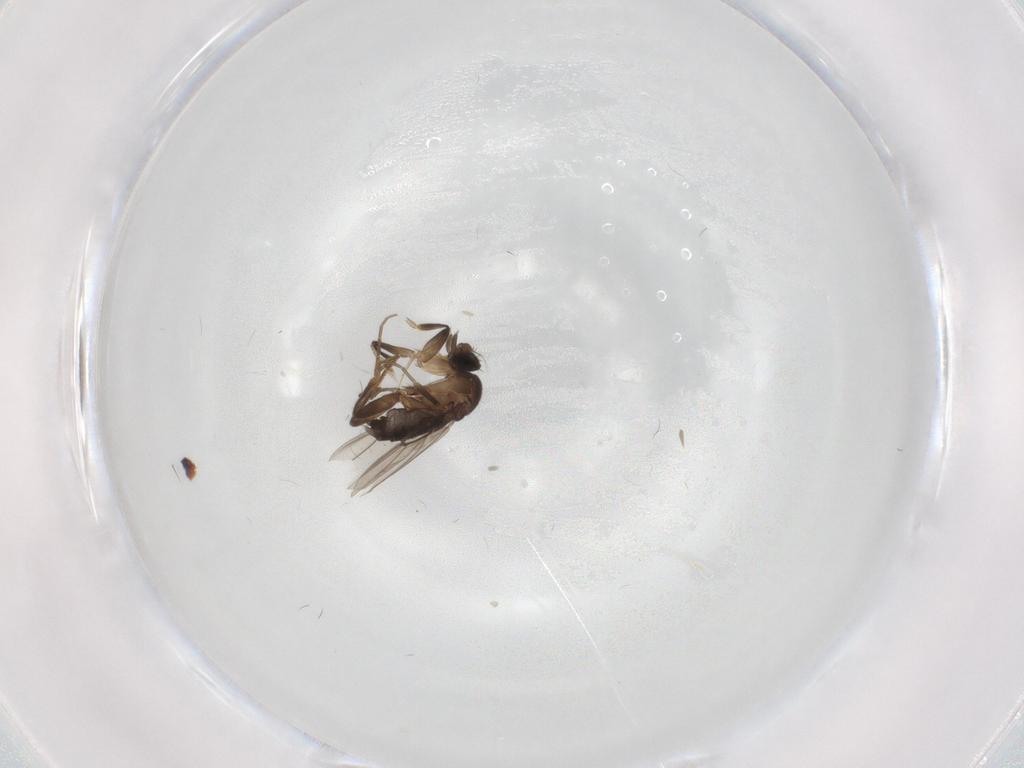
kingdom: Animalia
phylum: Arthropoda
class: Insecta
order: Diptera
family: Phoridae
